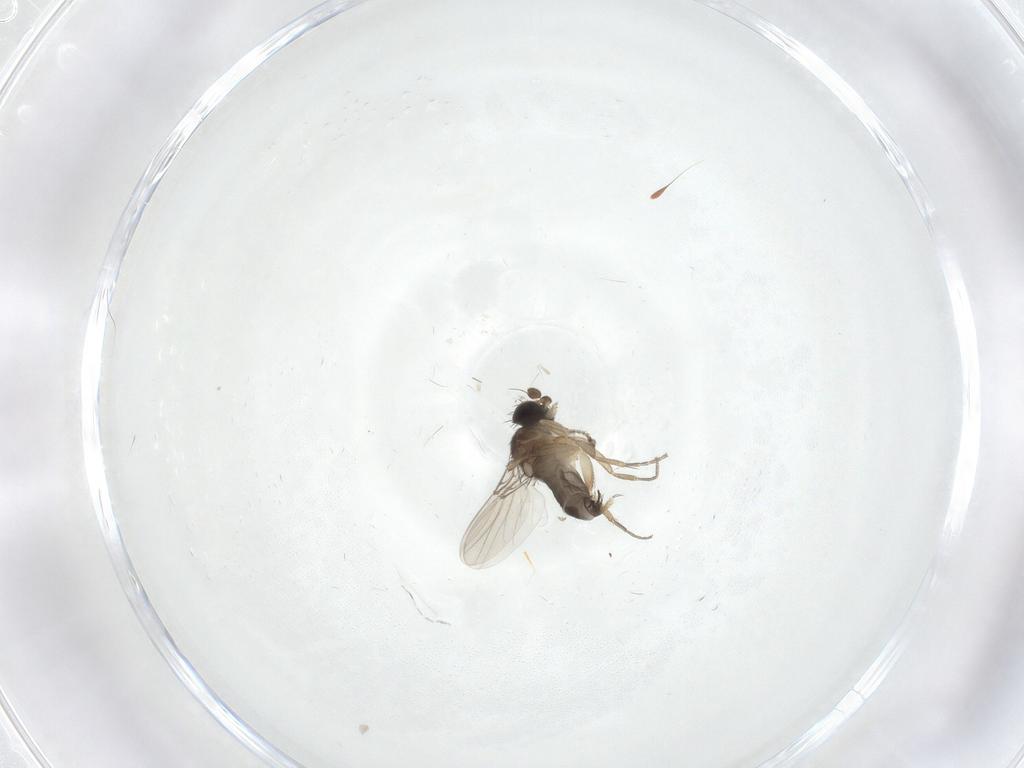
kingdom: Animalia
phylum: Arthropoda
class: Insecta
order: Diptera
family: Phoridae
